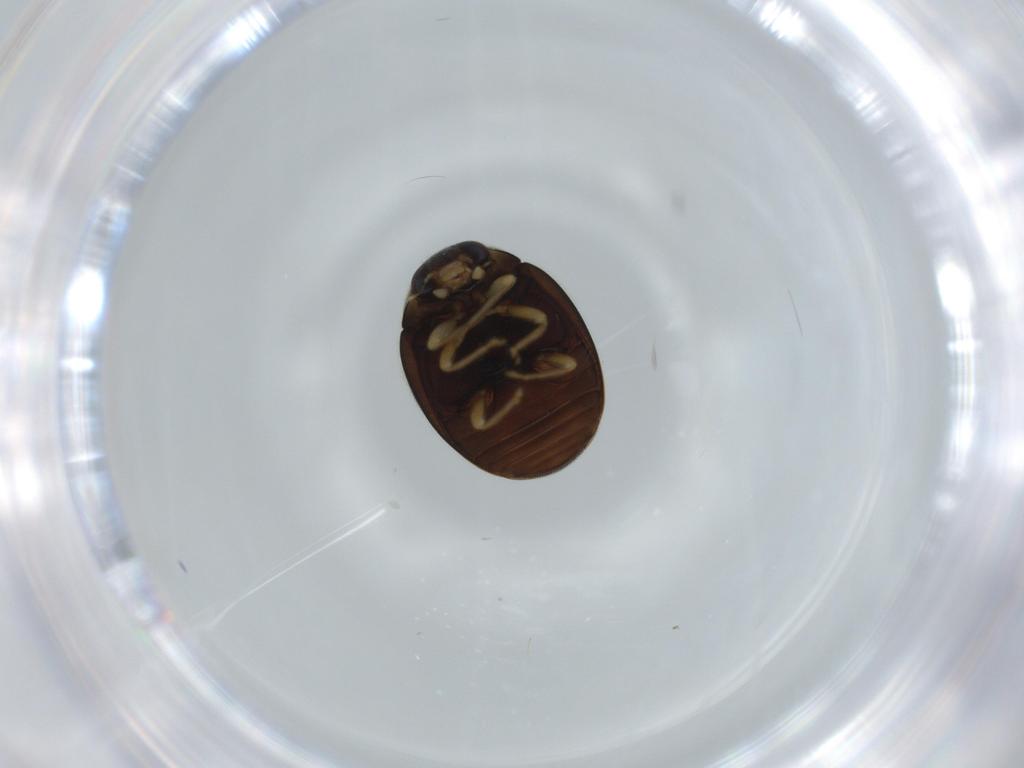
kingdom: Animalia
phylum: Arthropoda
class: Insecta
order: Coleoptera
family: Coccinellidae
